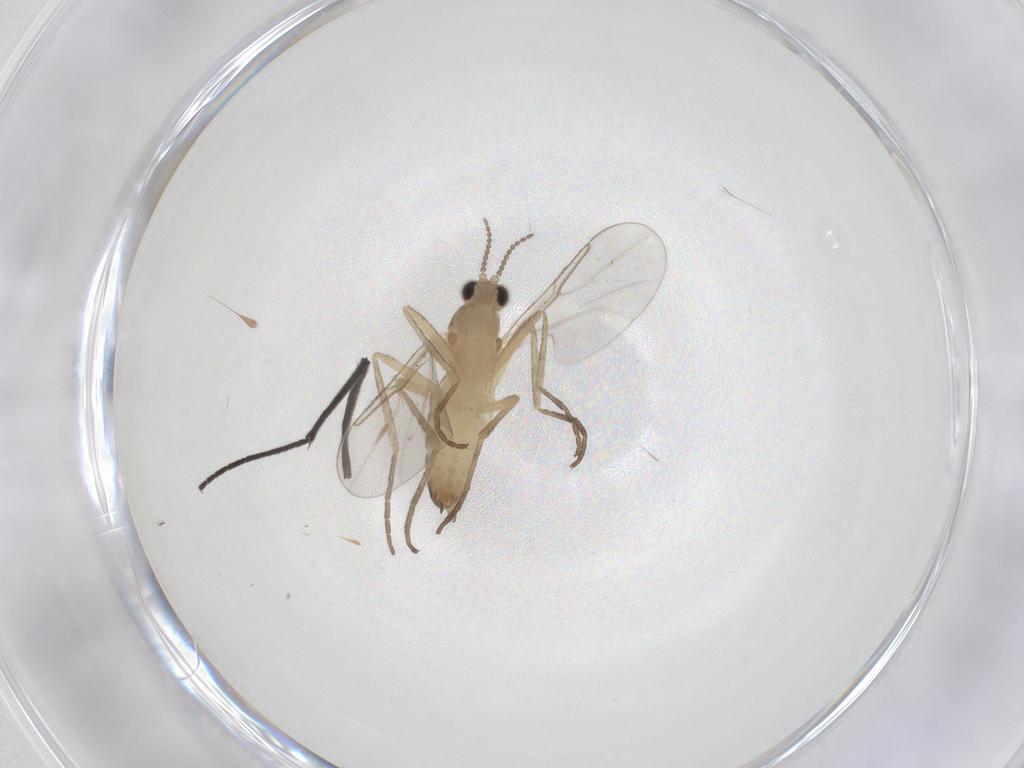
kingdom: Animalia
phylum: Arthropoda
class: Insecta
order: Diptera
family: Cecidomyiidae
